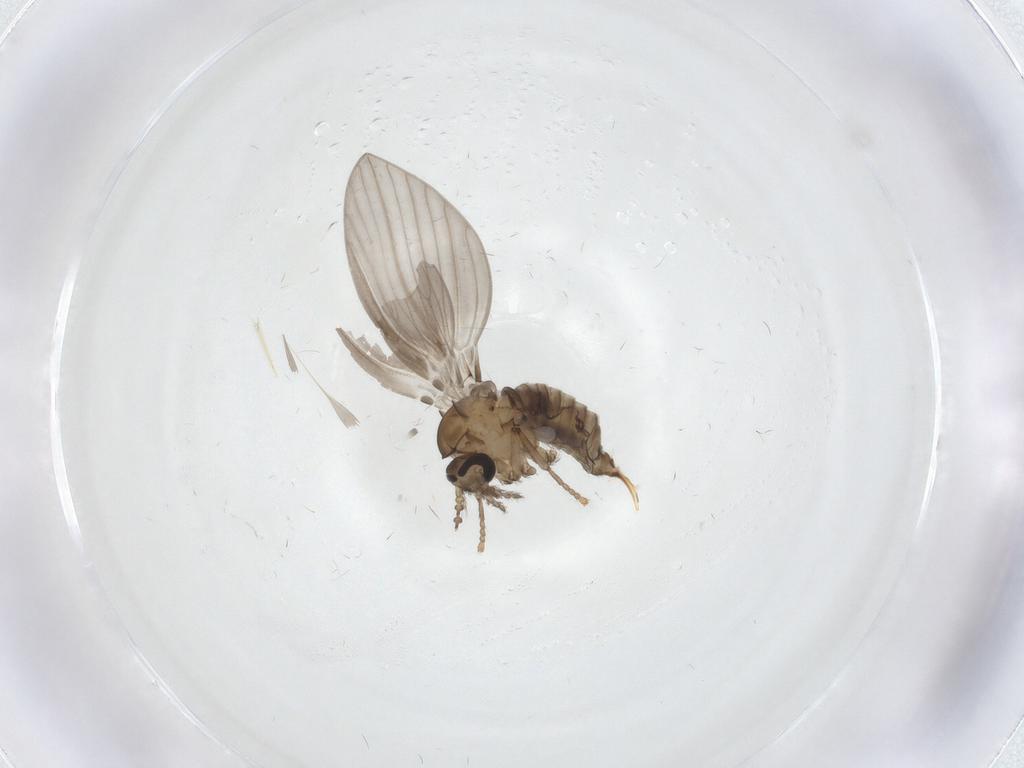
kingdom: Animalia
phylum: Arthropoda
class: Insecta
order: Diptera
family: Psychodidae
